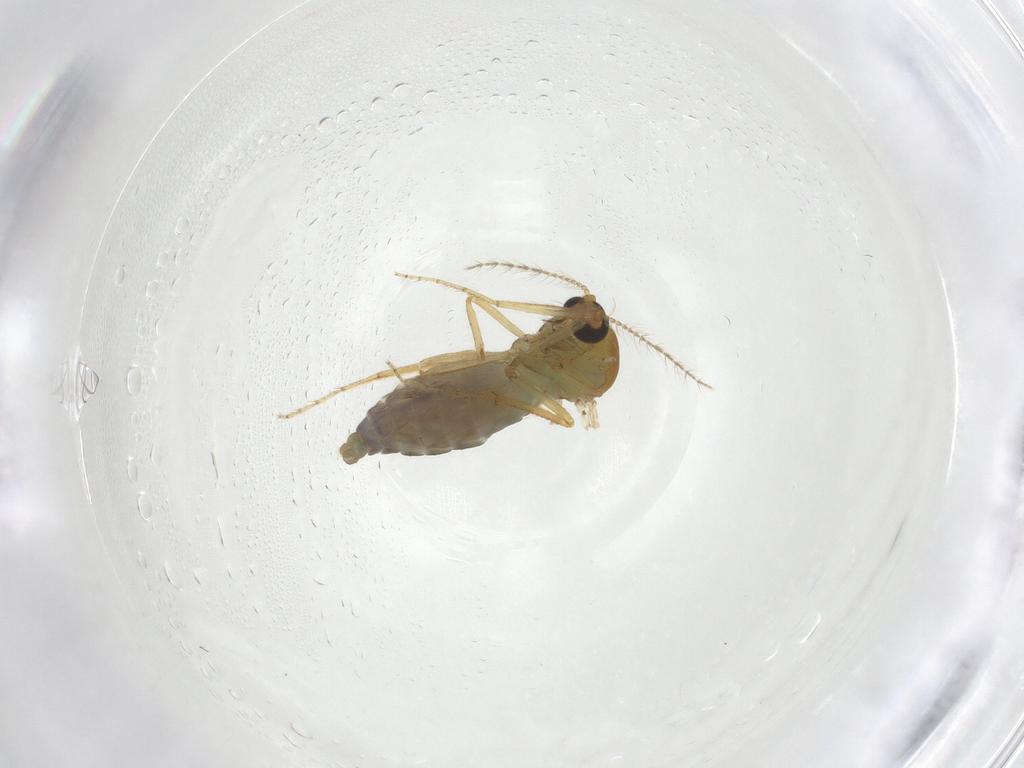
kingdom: Animalia
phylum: Arthropoda
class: Insecta
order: Diptera
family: Ceratopogonidae
